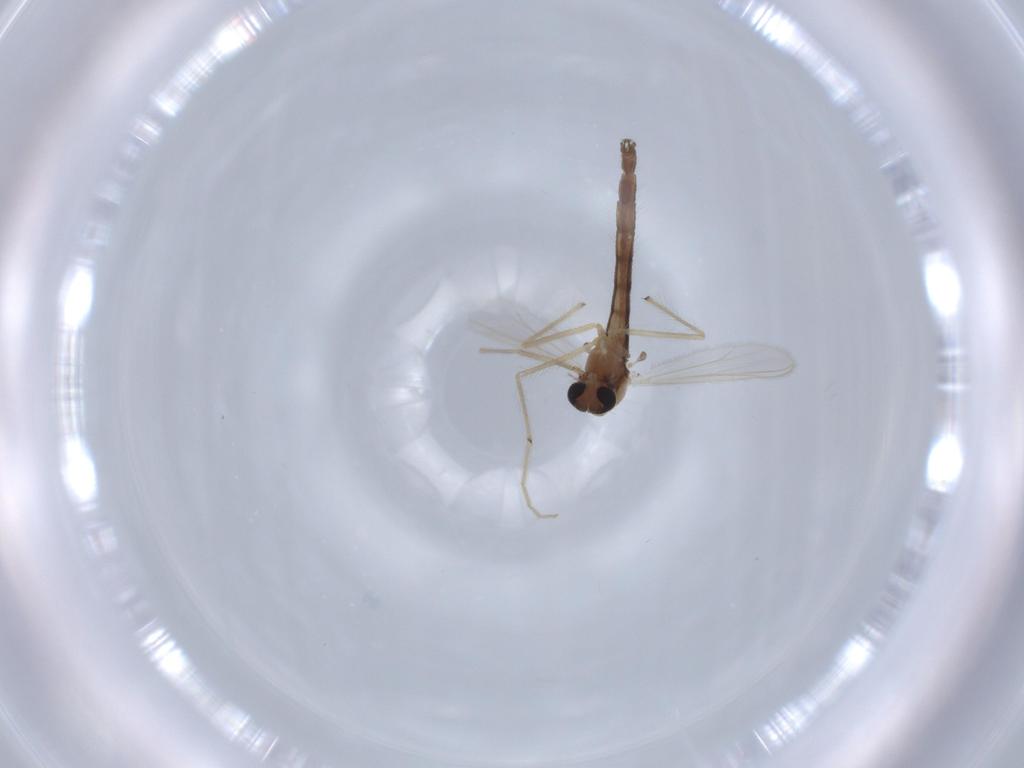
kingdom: Animalia
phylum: Arthropoda
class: Insecta
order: Diptera
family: Chironomidae
